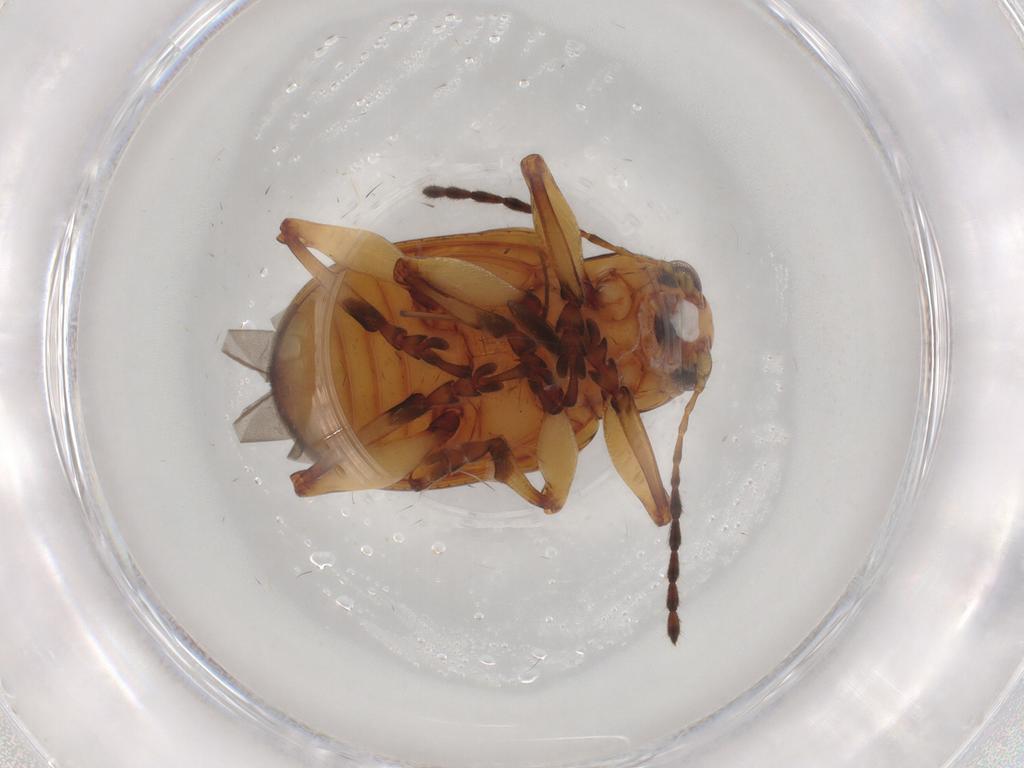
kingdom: Animalia
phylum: Arthropoda
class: Insecta
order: Coleoptera
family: Chrysomelidae
